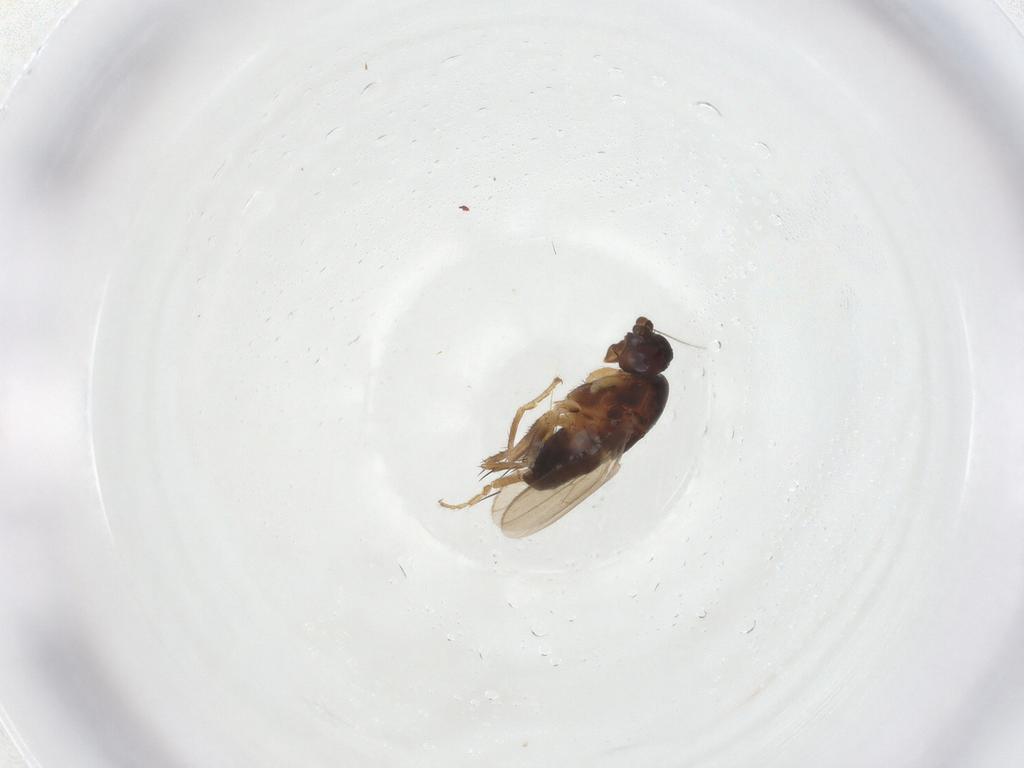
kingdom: Animalia
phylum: Arthropoda
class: Insecta
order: Diptera
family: Sphaeroceridae
